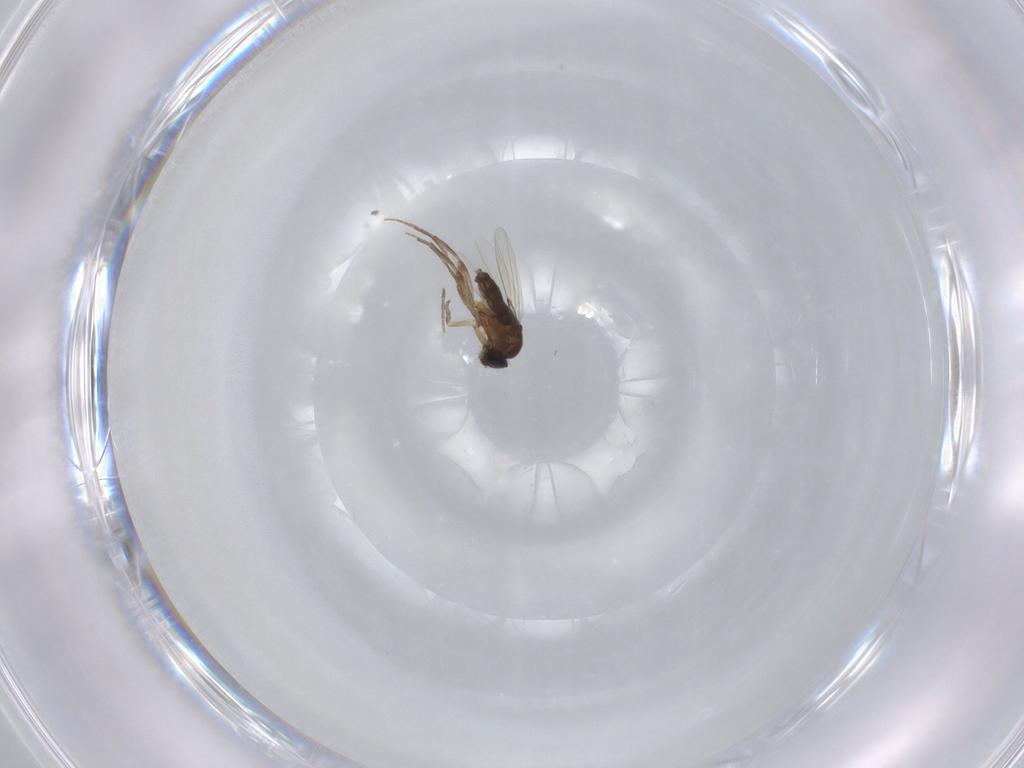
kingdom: Animalia
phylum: Arthropoda
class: Insecta
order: Diptera
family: Phoridae
